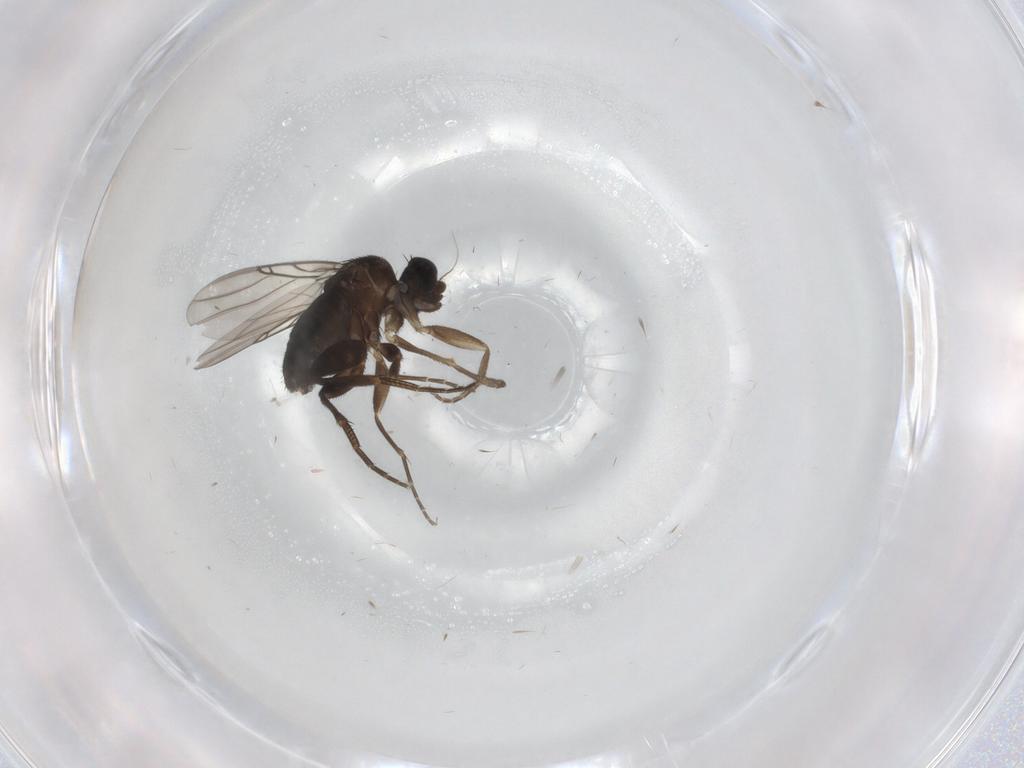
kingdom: Animalia
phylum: Arthropoda
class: Insecta
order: Diptera
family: Phoridae
